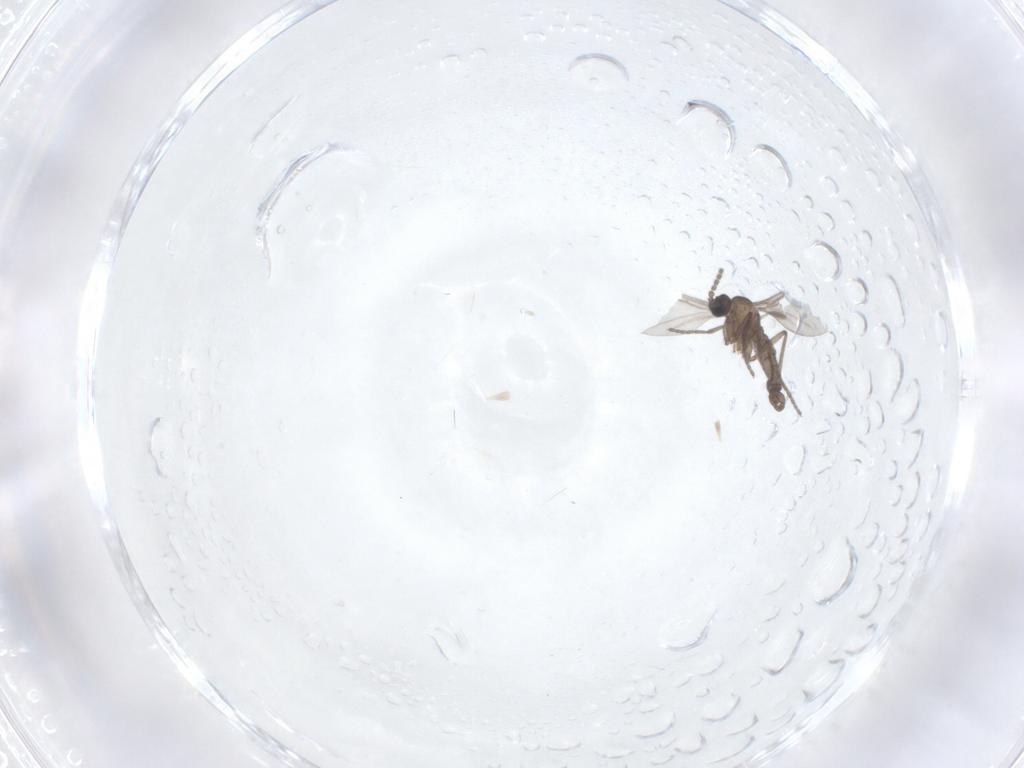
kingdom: Animalia
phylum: Arthropoda
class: Insecta
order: Diptera
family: Sciaridae
